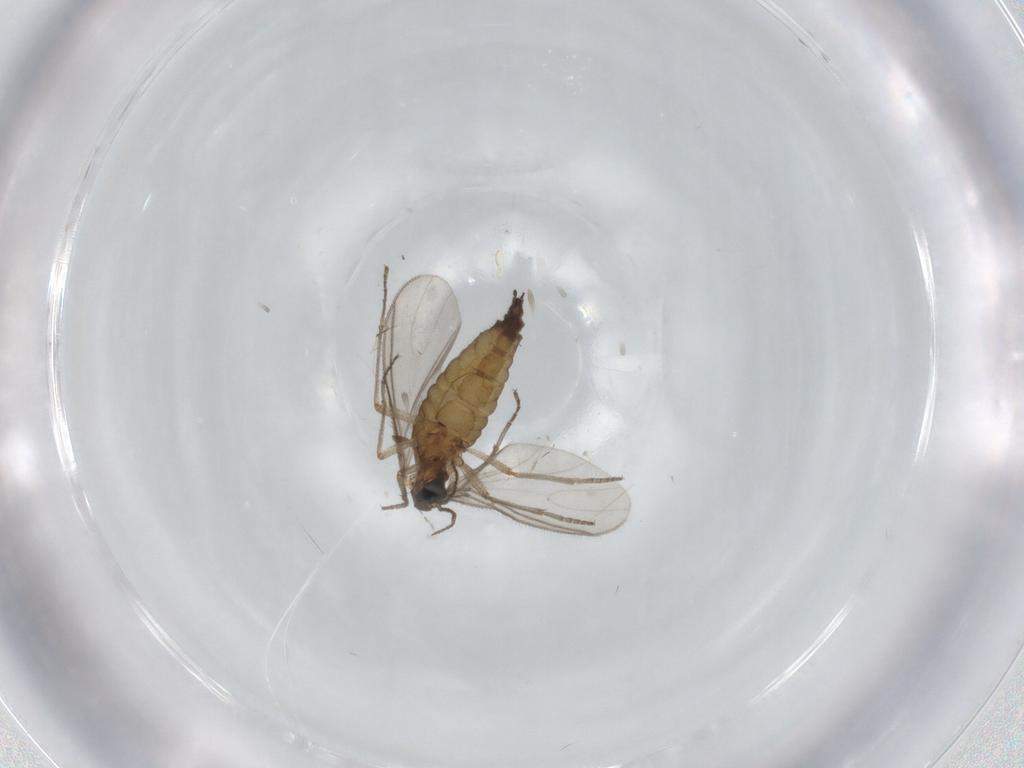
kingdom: Animalia
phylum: Arthropoda
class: Insecta
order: Diptera
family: Sciaridae
